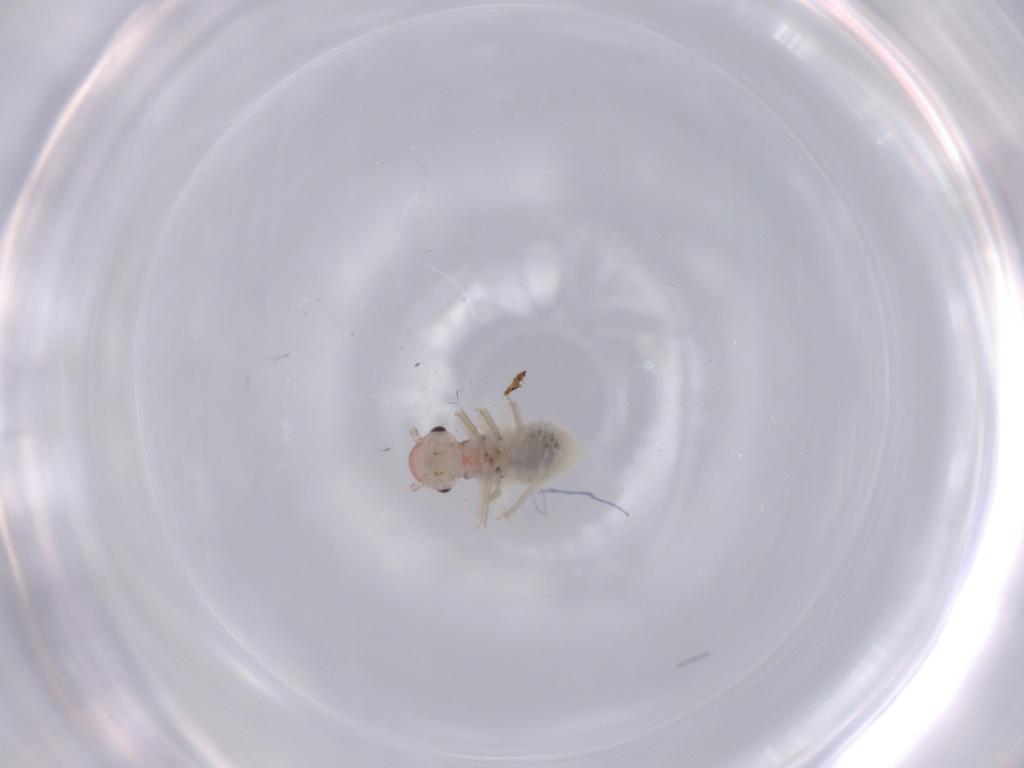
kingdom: Animalia
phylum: Arthropoda
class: Insecta
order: Psocodea
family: Amphipsocidae
